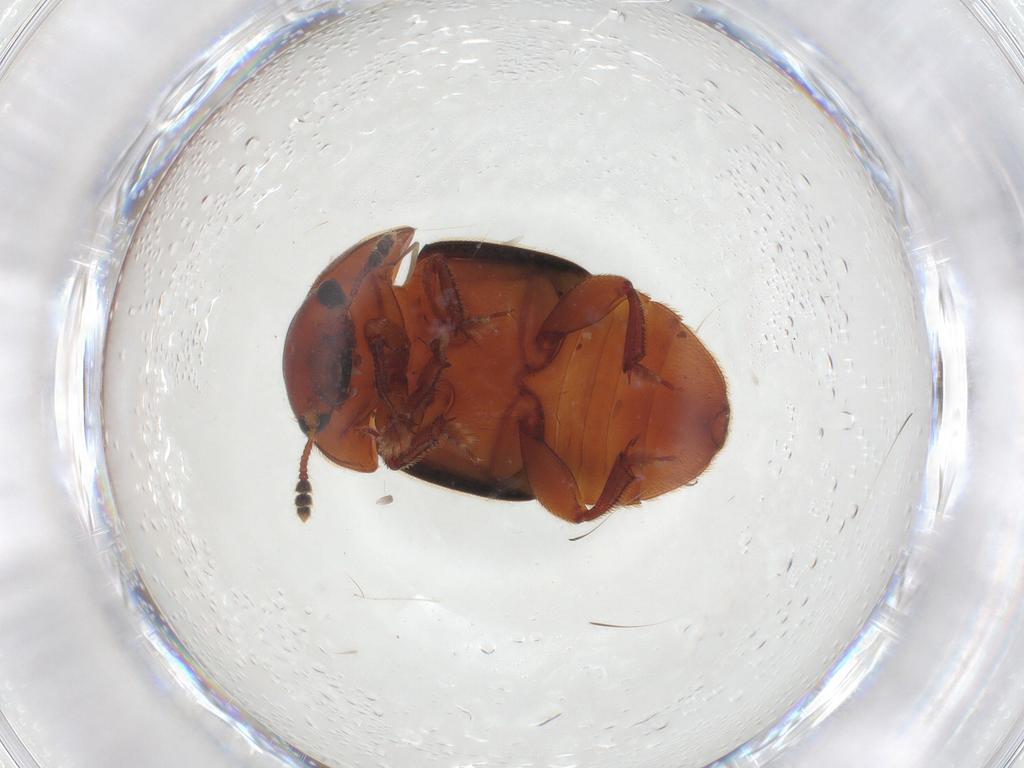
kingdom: Animalia
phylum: Arthropoda
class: Insecta
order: Coleoptera
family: Nitidulidae
